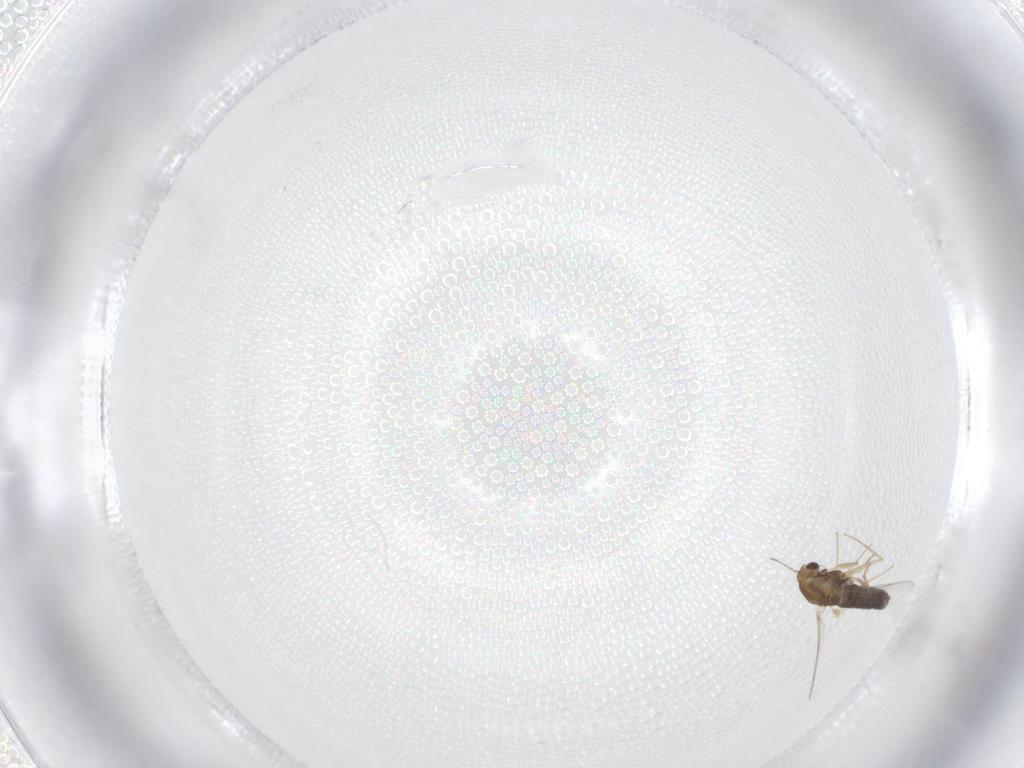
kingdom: Animalia
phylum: Arthropoda
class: Insecta
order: Diptera
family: Chironomidae
